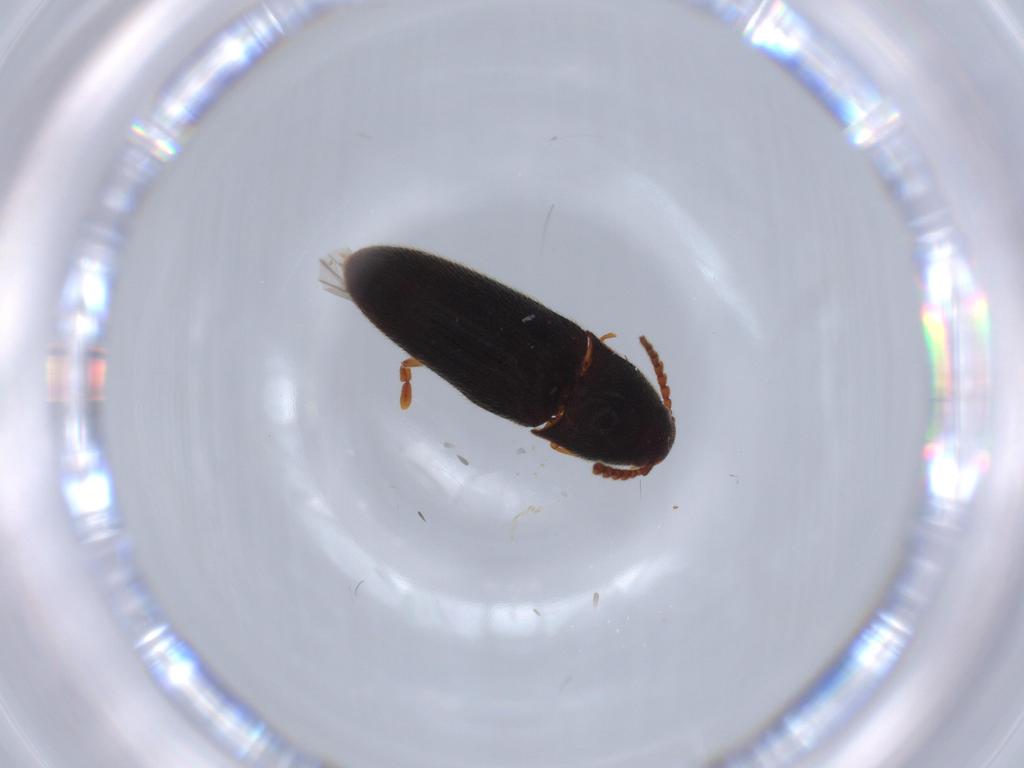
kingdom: Animalia
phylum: Arthropoda
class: Insecta
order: Coleoptera
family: Elateridae
